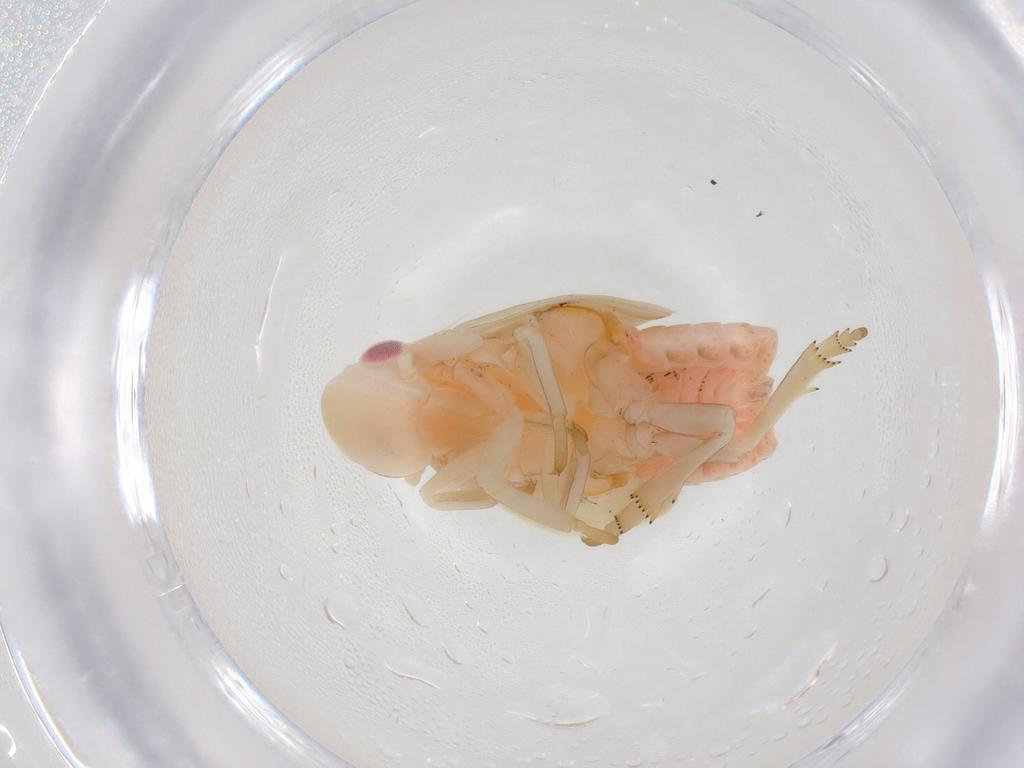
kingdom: Animalia
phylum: Arthropoda
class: Insecta
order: Hemiptera
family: Flatidae
